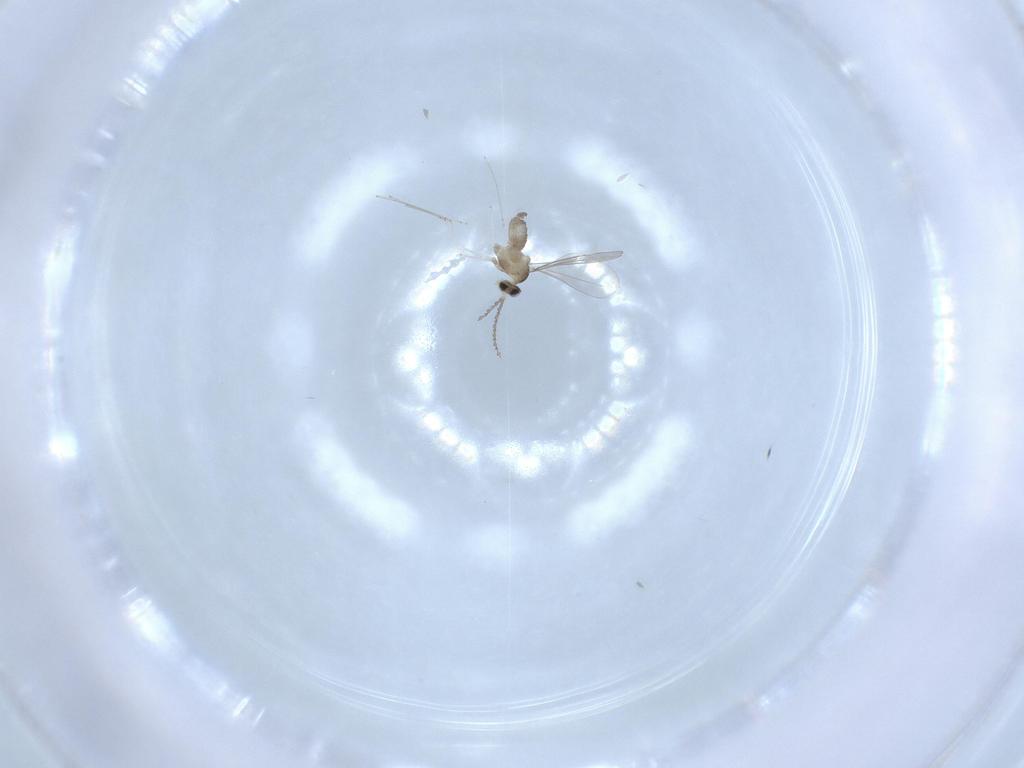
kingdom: Animalia
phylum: Arthropoda
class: Insecta
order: Diptera
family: Cecidomyiidae
